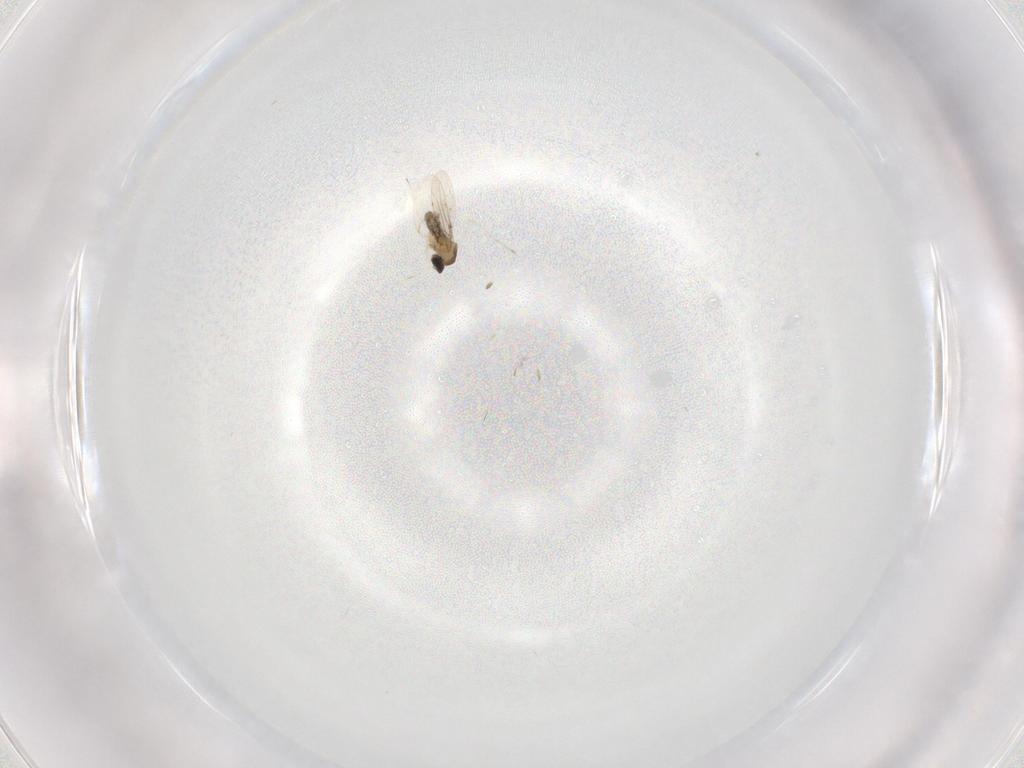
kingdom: Animalia
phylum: Arthropoda
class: Insecta
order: Diptera
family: Cecidomyiidae
